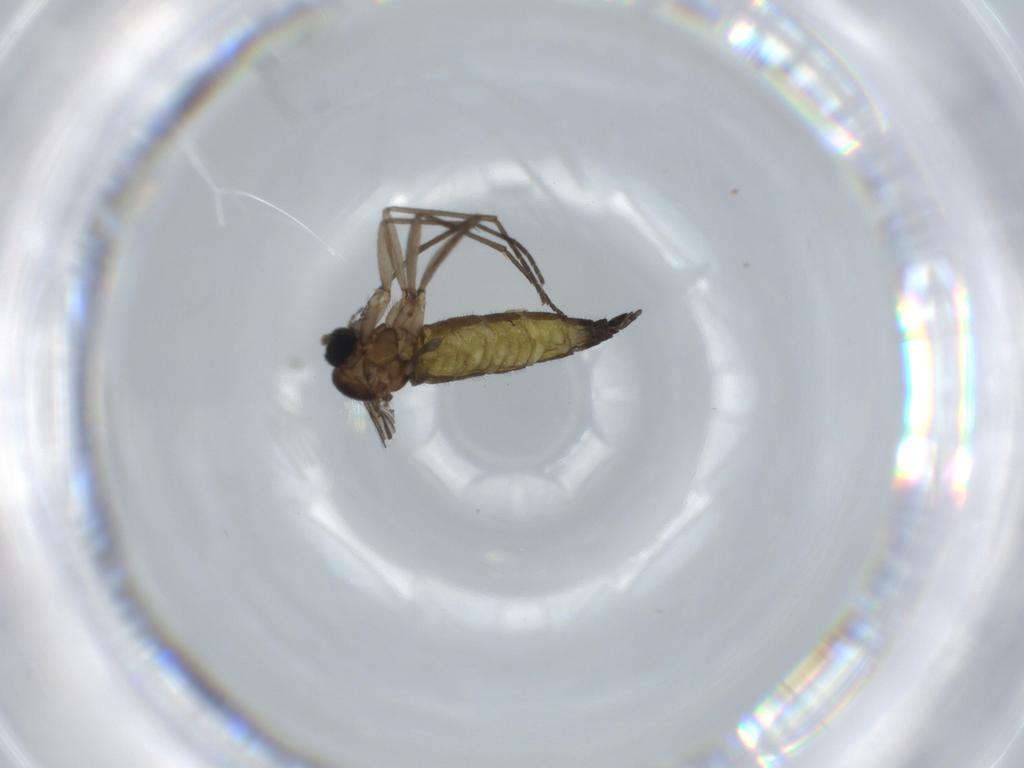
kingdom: Animalia
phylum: Arthropoda
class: Insecta
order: Diptera
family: Sciaridae
